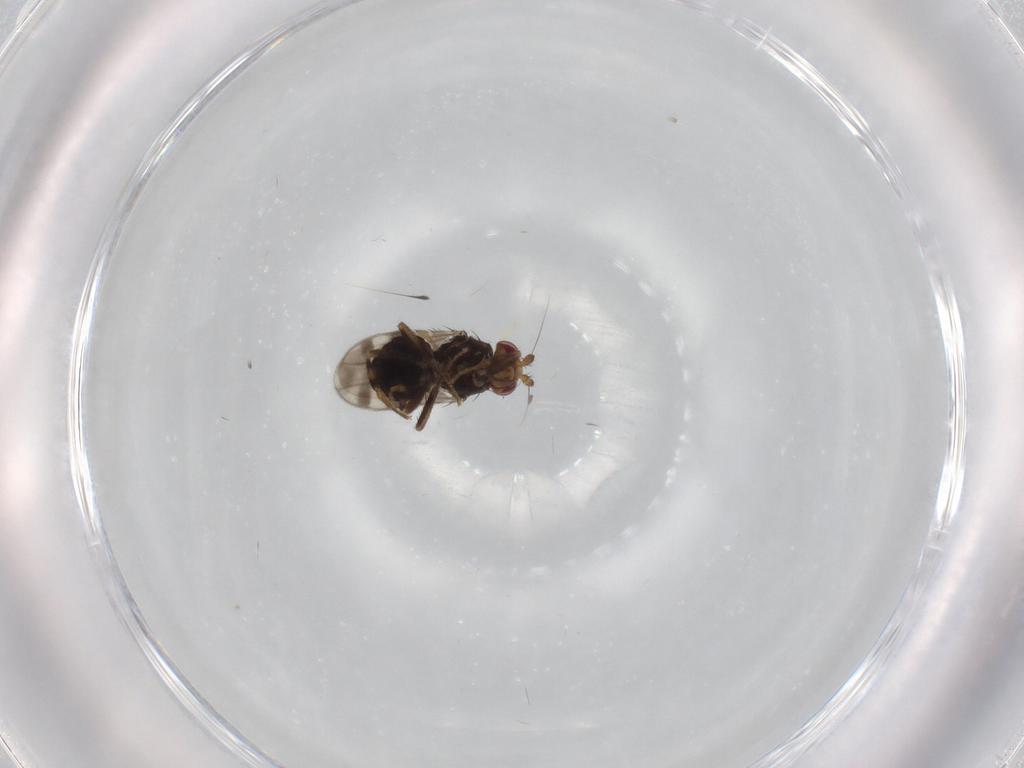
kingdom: Animalia
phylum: Arthropoda
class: Insecta
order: Diptera
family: Sphaeroceridae
